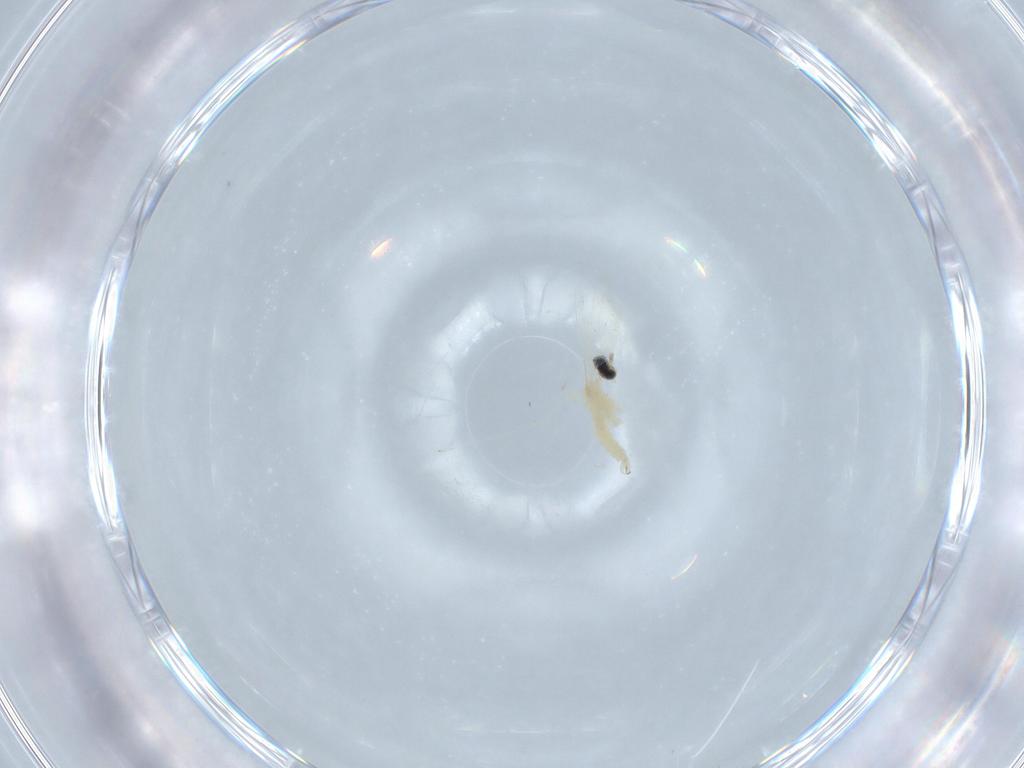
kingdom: Animalia
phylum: Arthropoda
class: Insecta
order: Diptera
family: Cecidomyiidae
